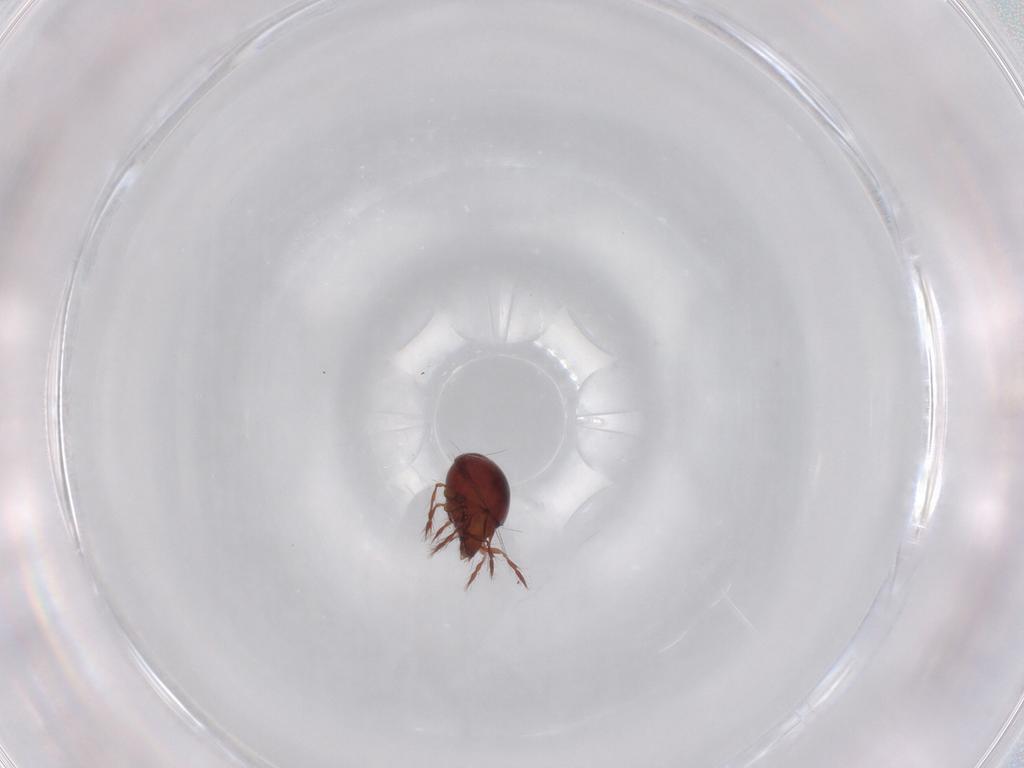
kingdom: Animalia
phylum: Arthropoda
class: Arachnida
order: Sarcoptiformes
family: Ceratoppiidae
